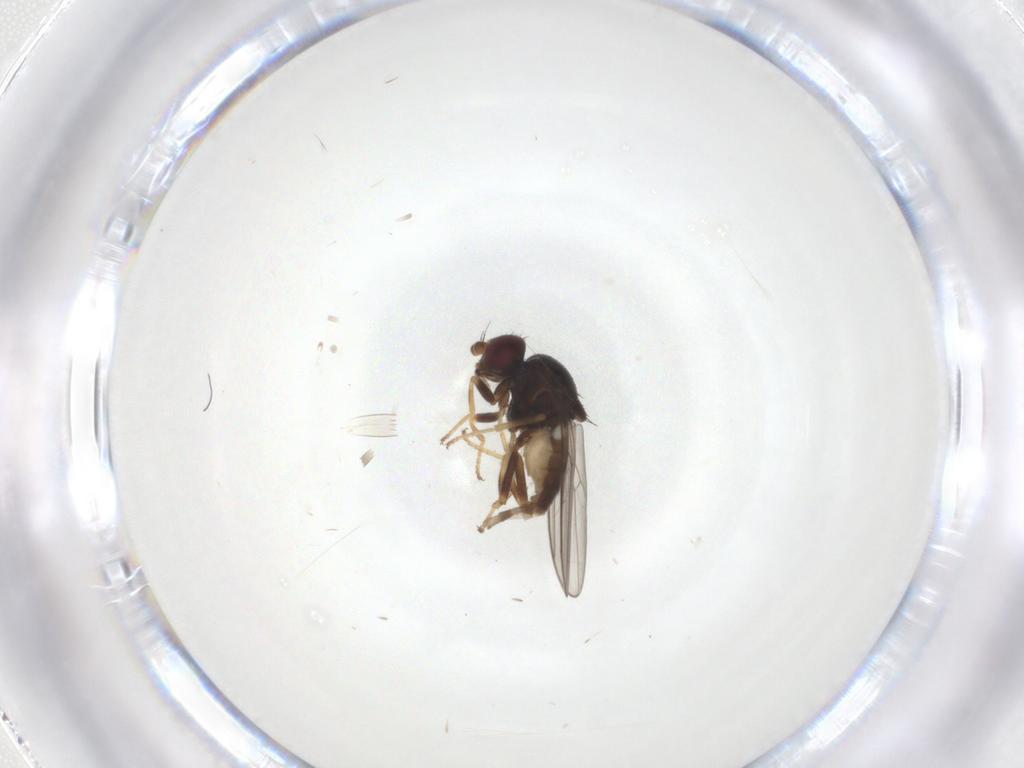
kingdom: Animalia
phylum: Arthropoda
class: Insecta
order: Diptera
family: Chloropidae
